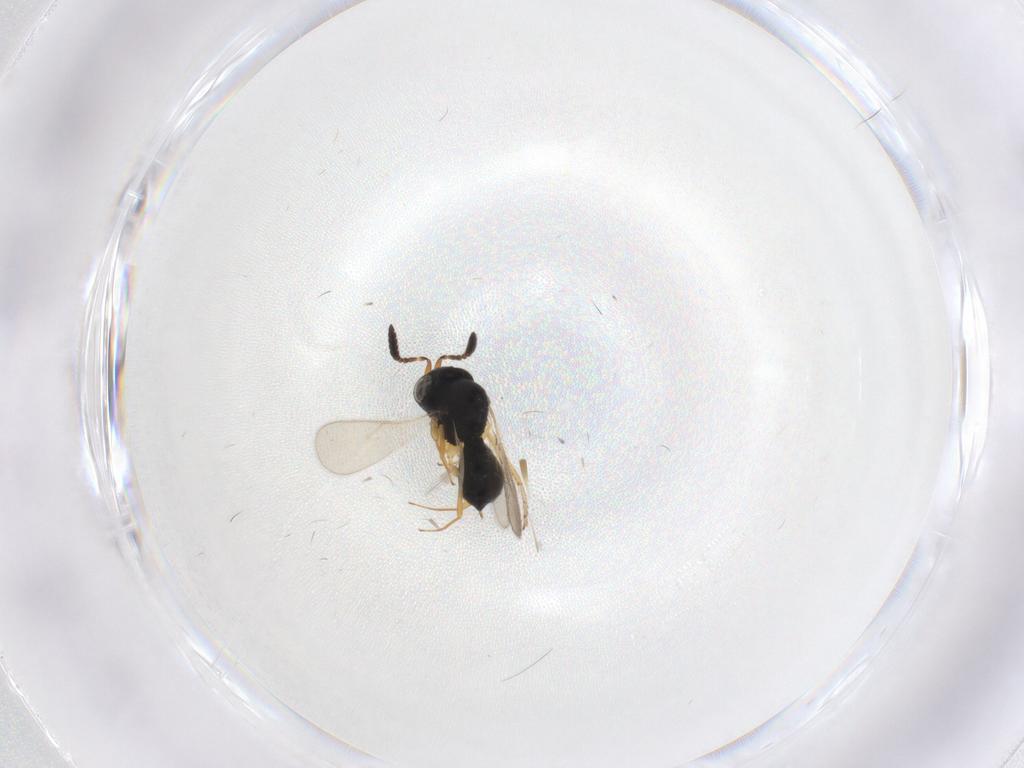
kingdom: Animalia
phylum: Arthropoda
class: Insecta
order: Hymenoptera
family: Scelionidae
